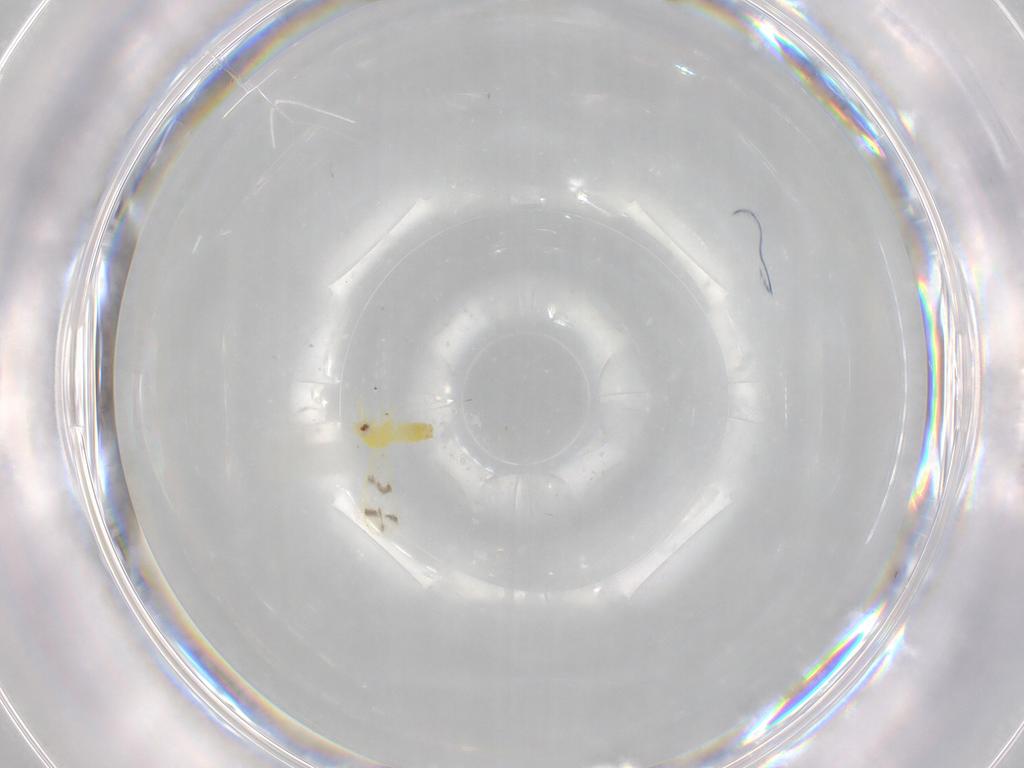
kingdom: Animalia
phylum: Arthropoda
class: Insecta
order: Hemiptera
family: Aleyrodidae
